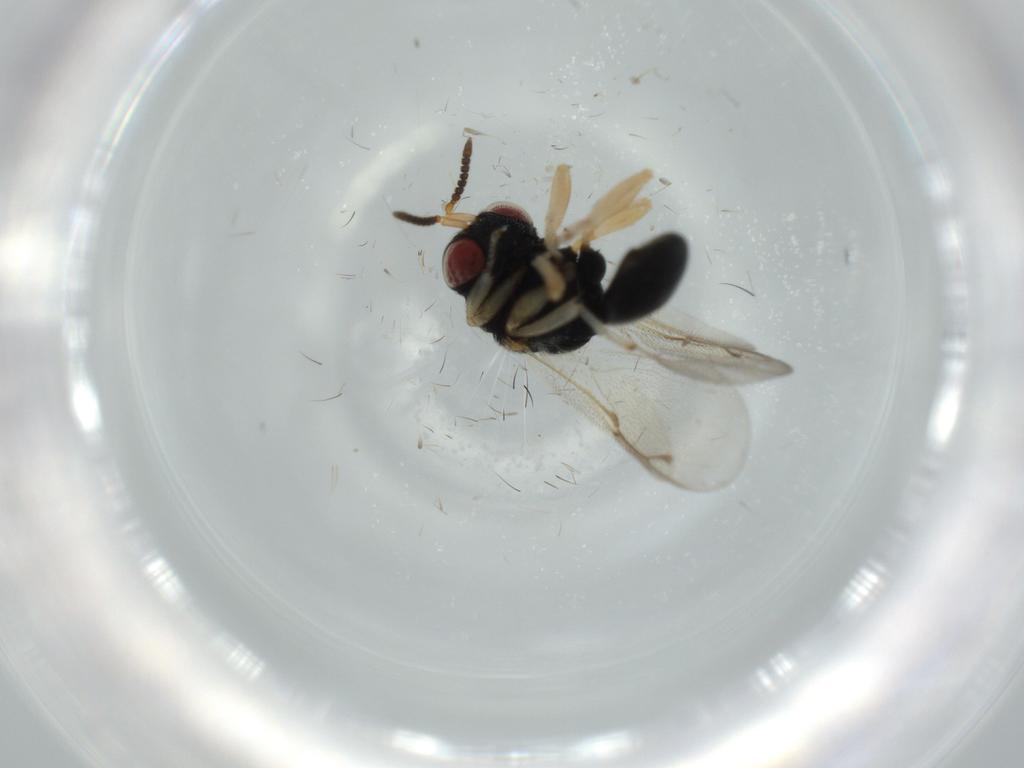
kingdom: Animalia
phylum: Arthropoda
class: Insecta
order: Hymenoptera
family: Eurytomidae
